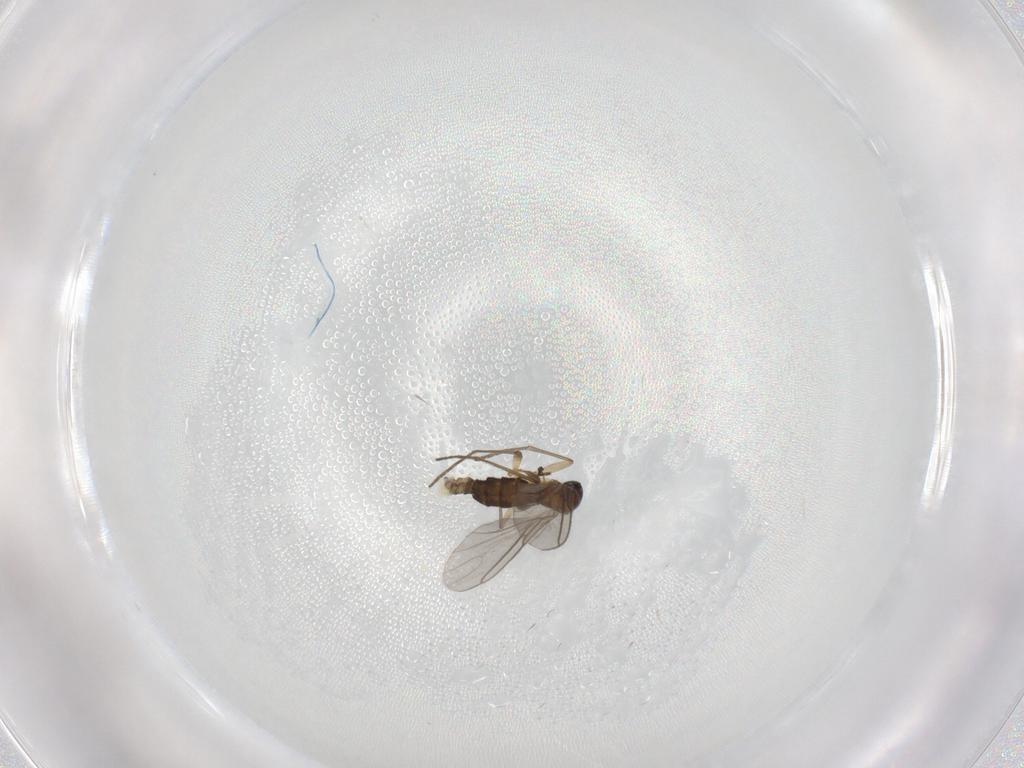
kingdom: Animalia
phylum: Arthropoda
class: Insecta
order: Diptera
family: Sciaridae
